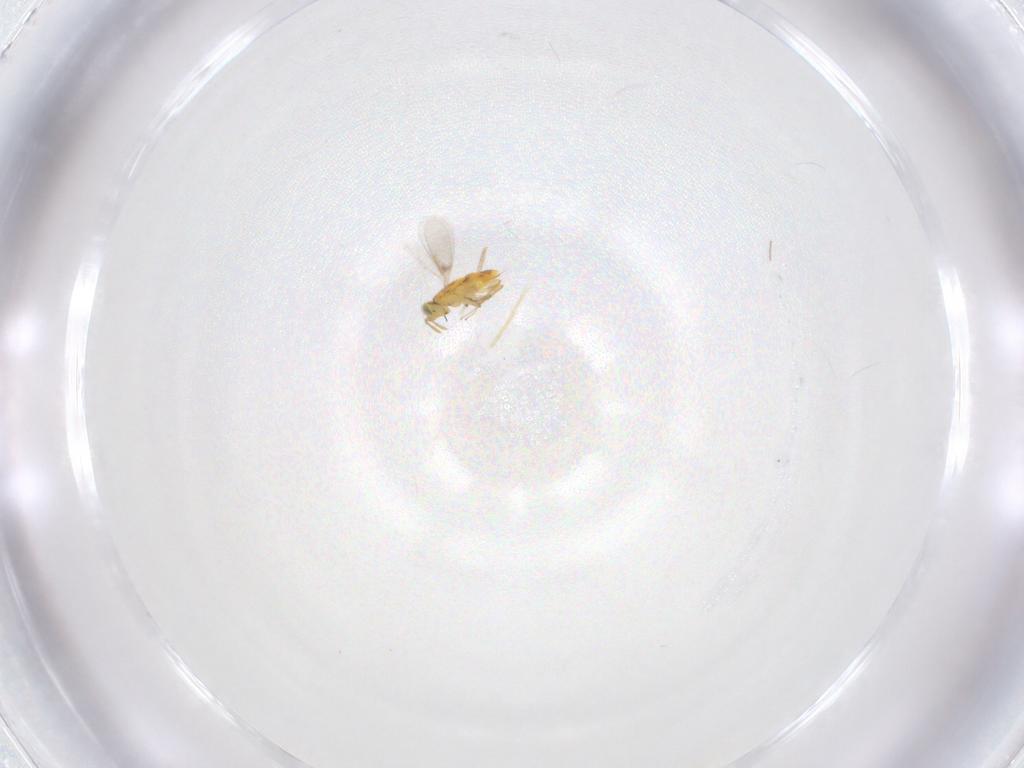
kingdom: Animalia
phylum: Arthropoda
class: Insecta
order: Hymenoptera
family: Aphelinidae
